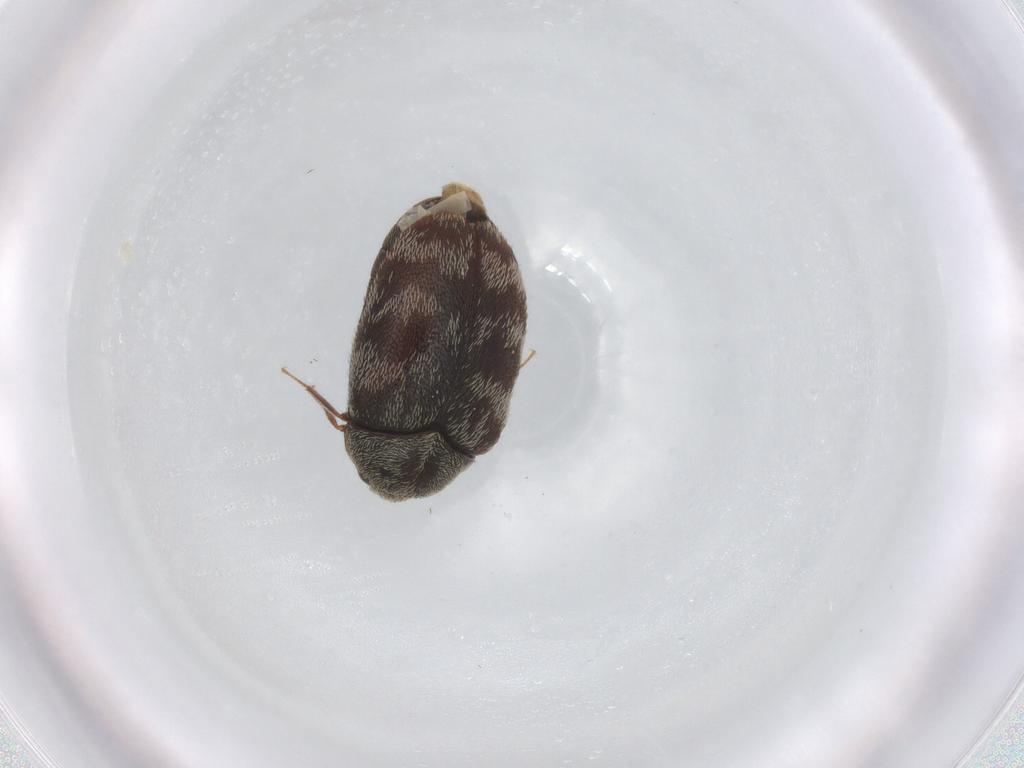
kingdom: Animalia
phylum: Arthropoda
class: Insecta
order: Coleoptera
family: Dermestidae
